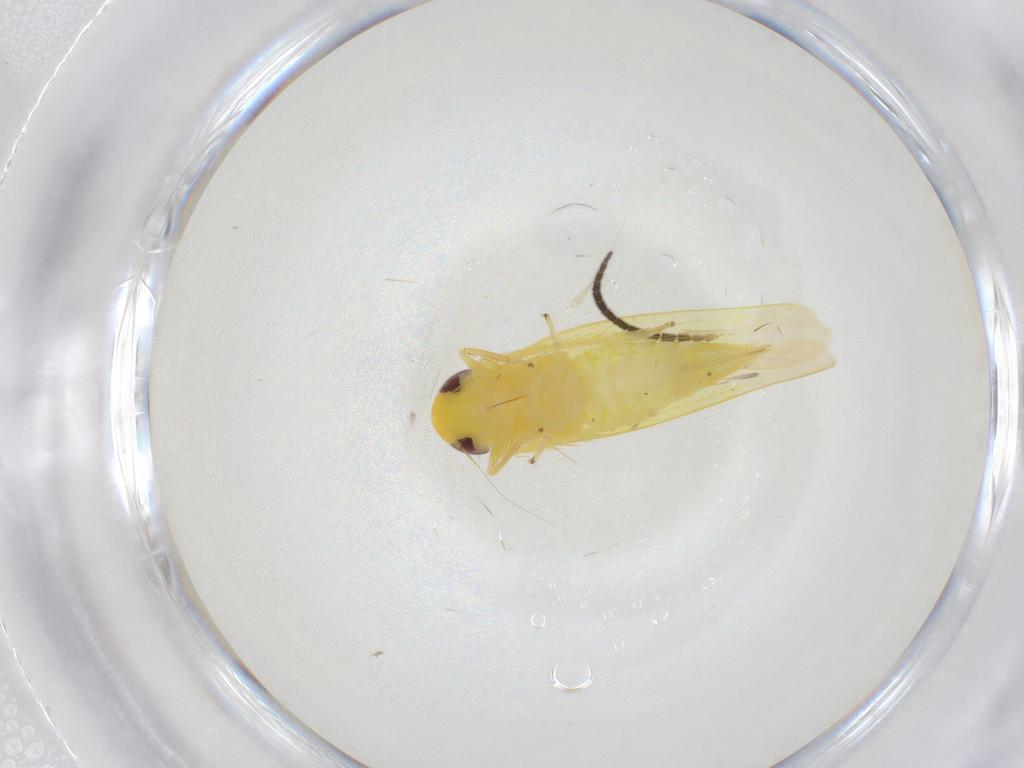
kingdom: Animalia
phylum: Arthropoda
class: Insecta
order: Hemiptera
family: Cicadellidae
